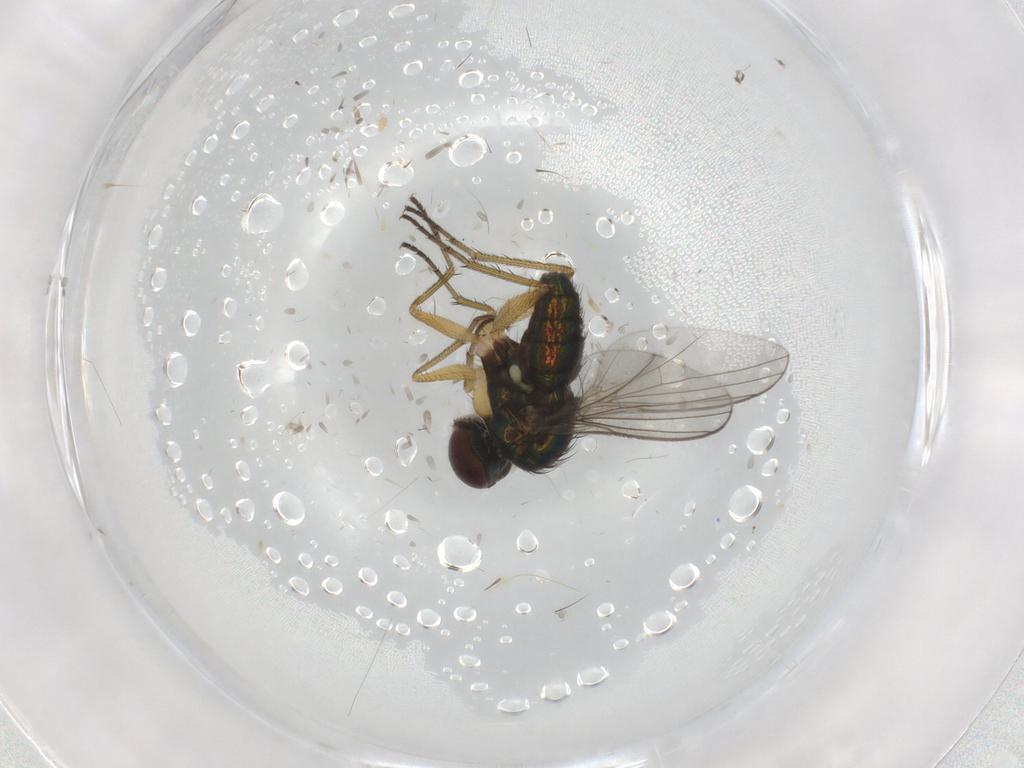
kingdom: Animalia
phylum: Arthropoda
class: Insecta
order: Diptera
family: Dolichopodidae
